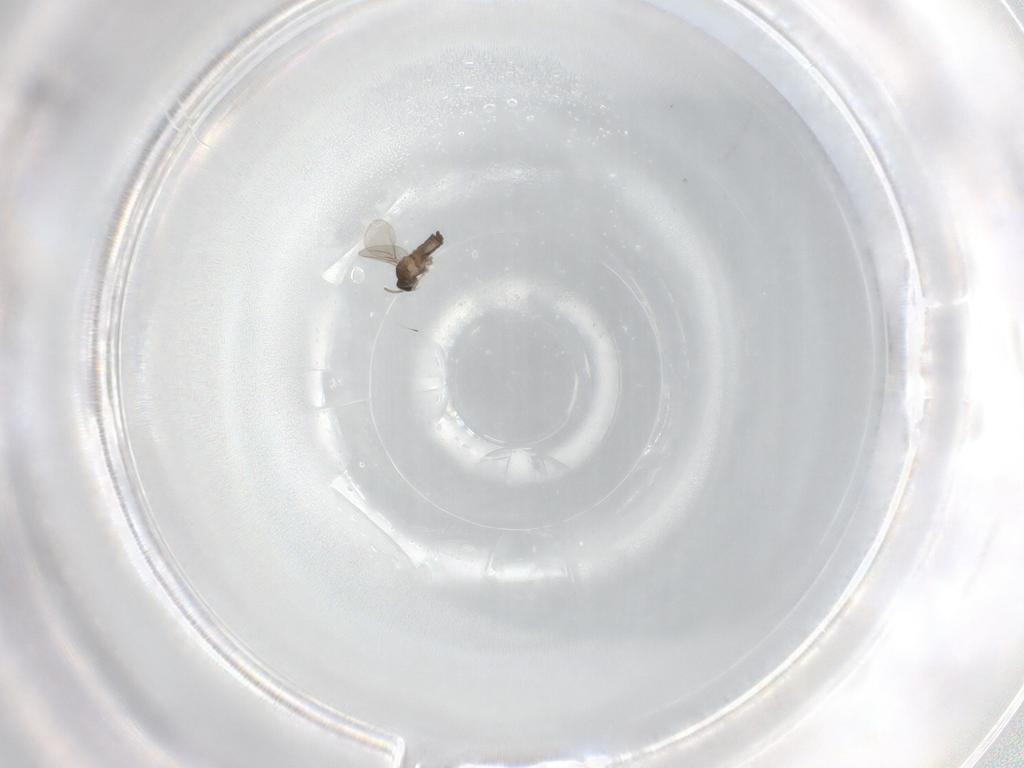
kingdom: Animalia
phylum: Arthropoda
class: Insecta
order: Diptera
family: Cecidomyiidae
